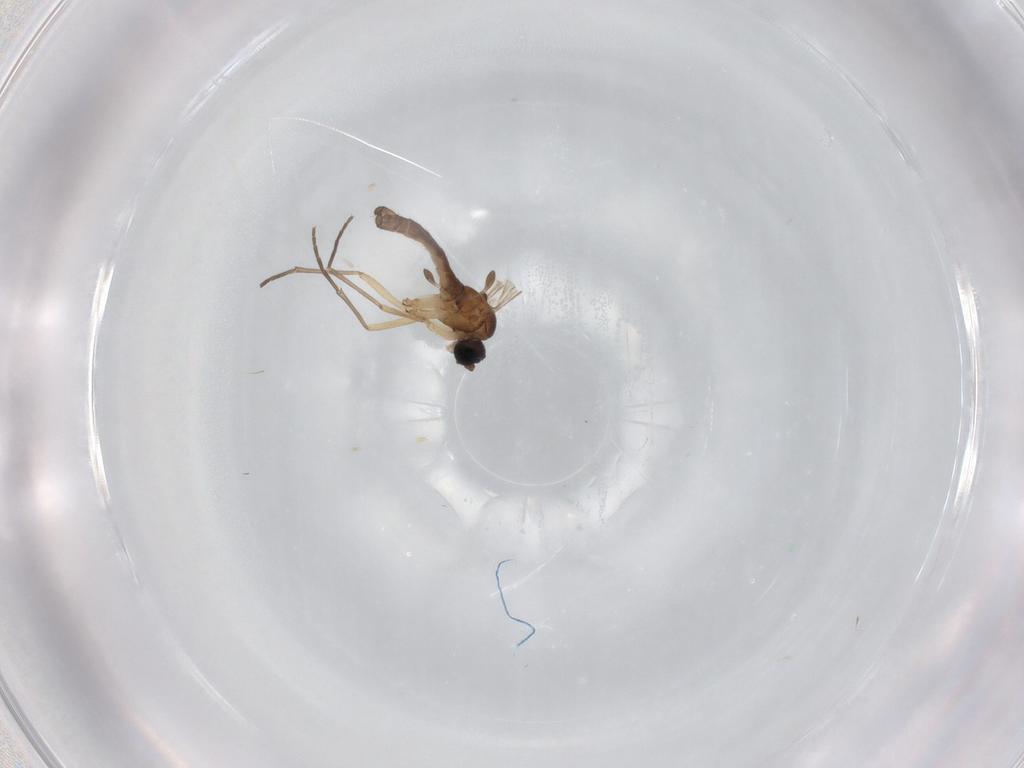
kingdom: Animalia
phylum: Arthropoda
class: Insecta
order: Diptera
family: Sciaridae
